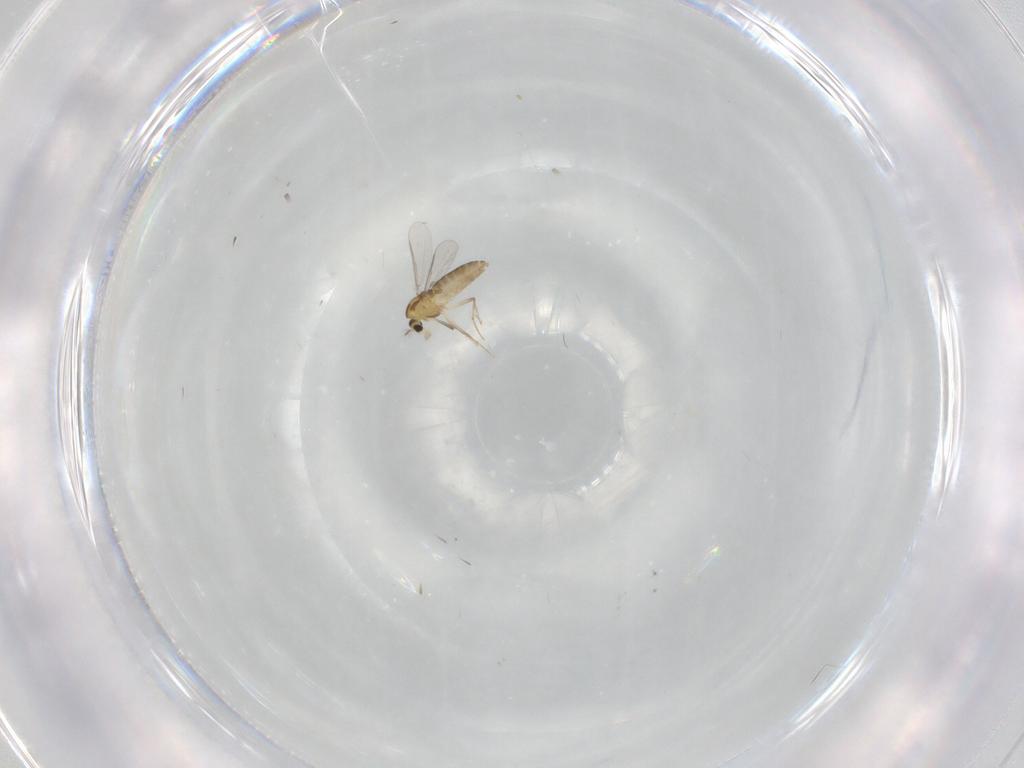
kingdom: Animalia
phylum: Arthropoda
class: Insecta
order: Diptera
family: Chironomidae
